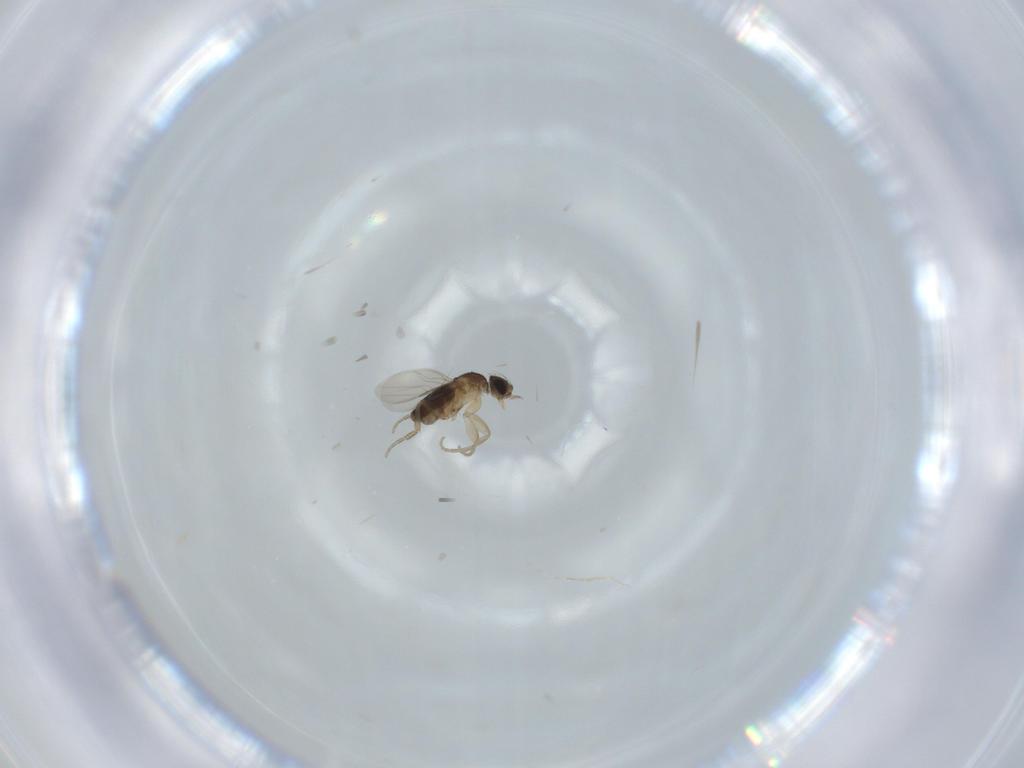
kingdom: Animalia
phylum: Arthropoda
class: Insecta
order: Diptera
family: Phoridae
